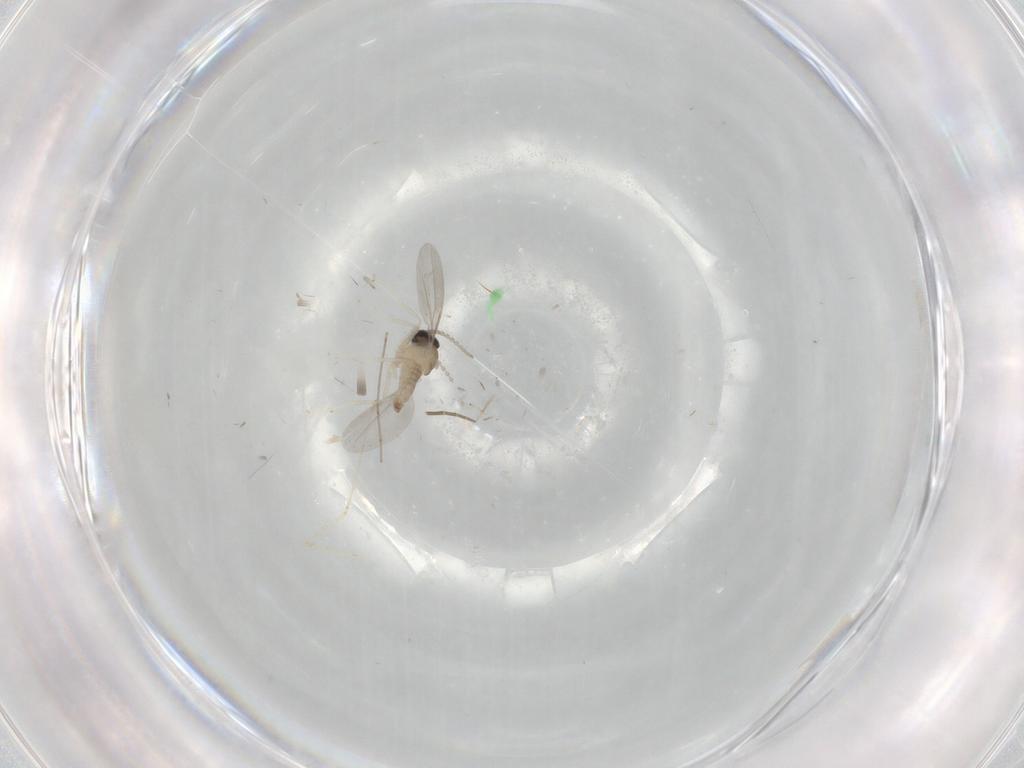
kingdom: Animalia
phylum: Arthropoda
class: Insecta
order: Diptera
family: Cecidomyiidae
